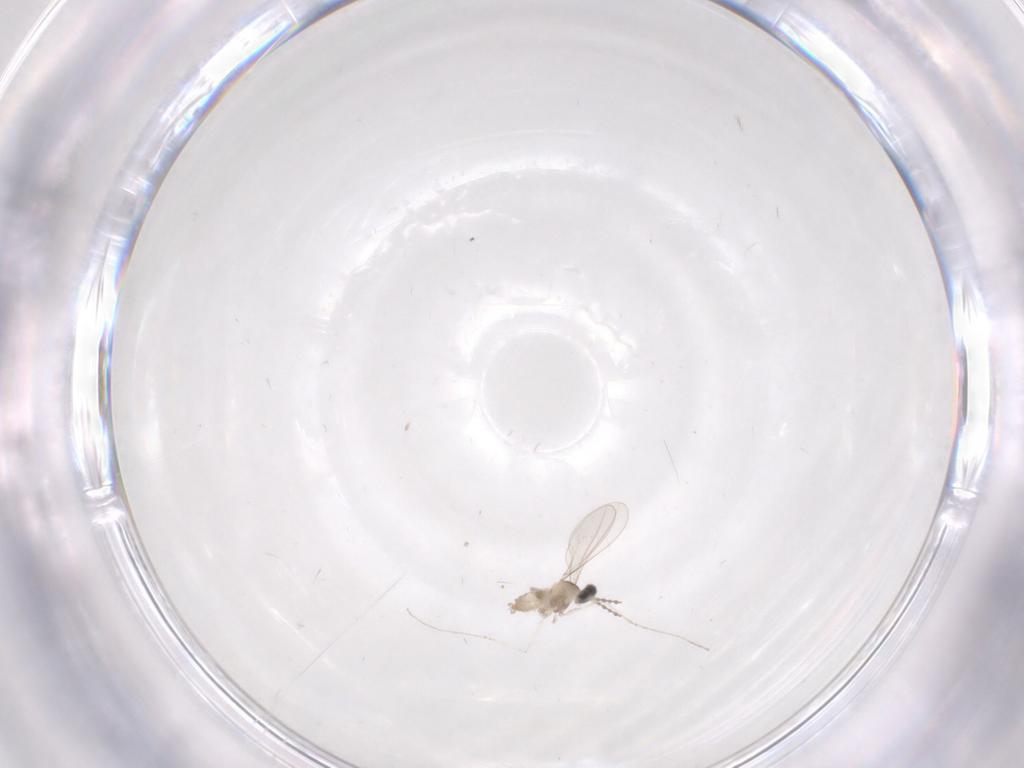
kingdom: Animalia
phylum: Arthropoda
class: Insecta
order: Diptera
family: Cecidomyiidae
